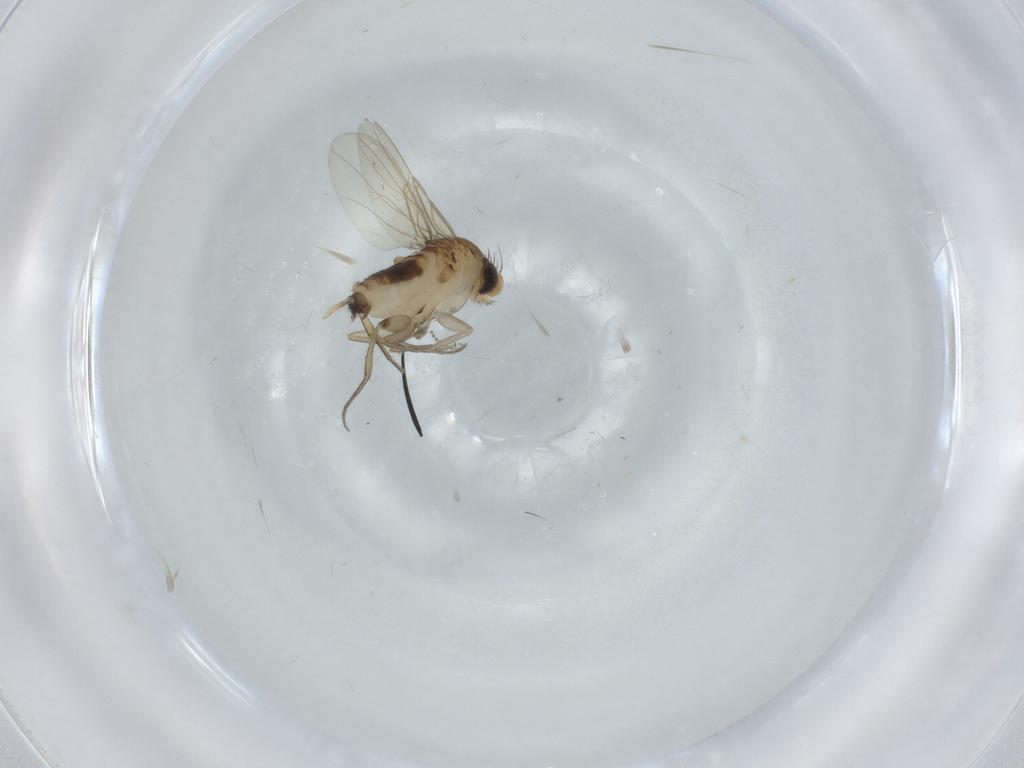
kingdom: Animalia
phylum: Arthropoda
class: Insecta
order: Diptera
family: Phoridae
